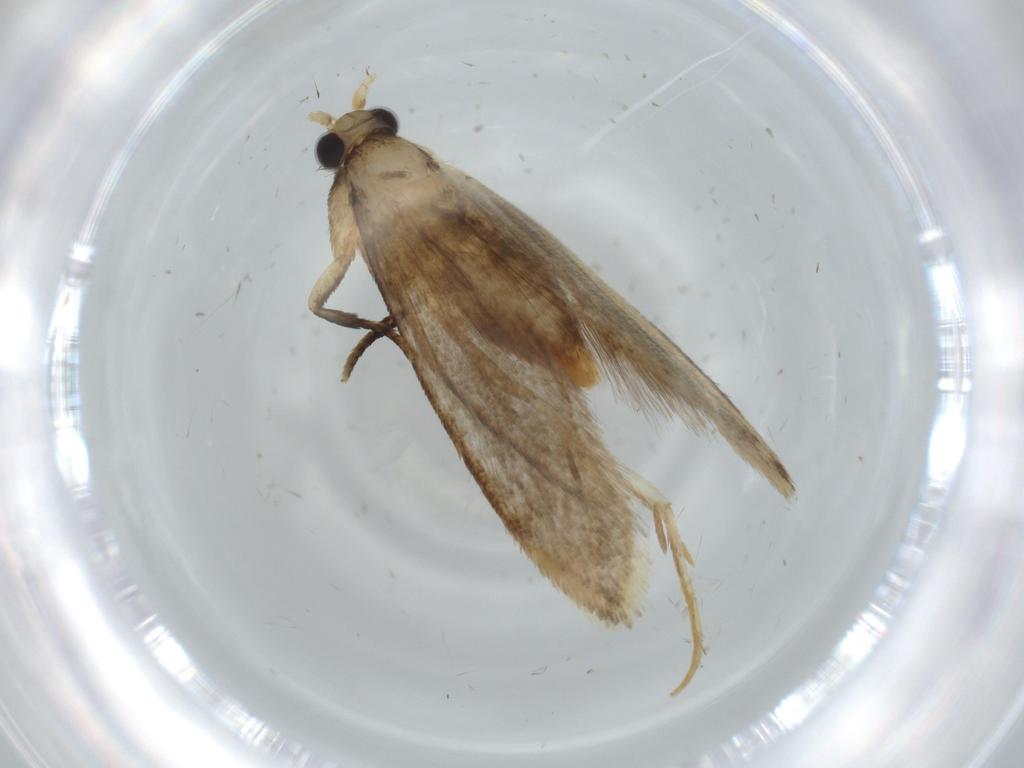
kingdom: Animalia
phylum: Arthropoda
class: Insecta
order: Lepidoptera
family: Tineidae
